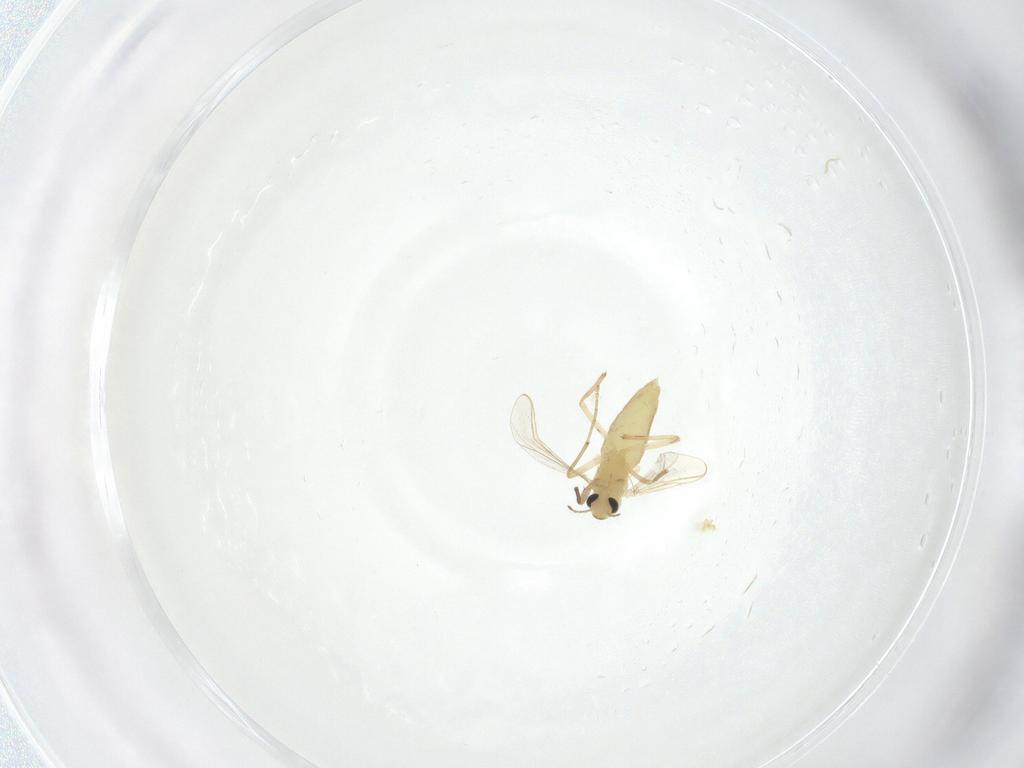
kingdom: Animalia
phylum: Arthropoda
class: Insecta
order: Diptera
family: Chironomidae
